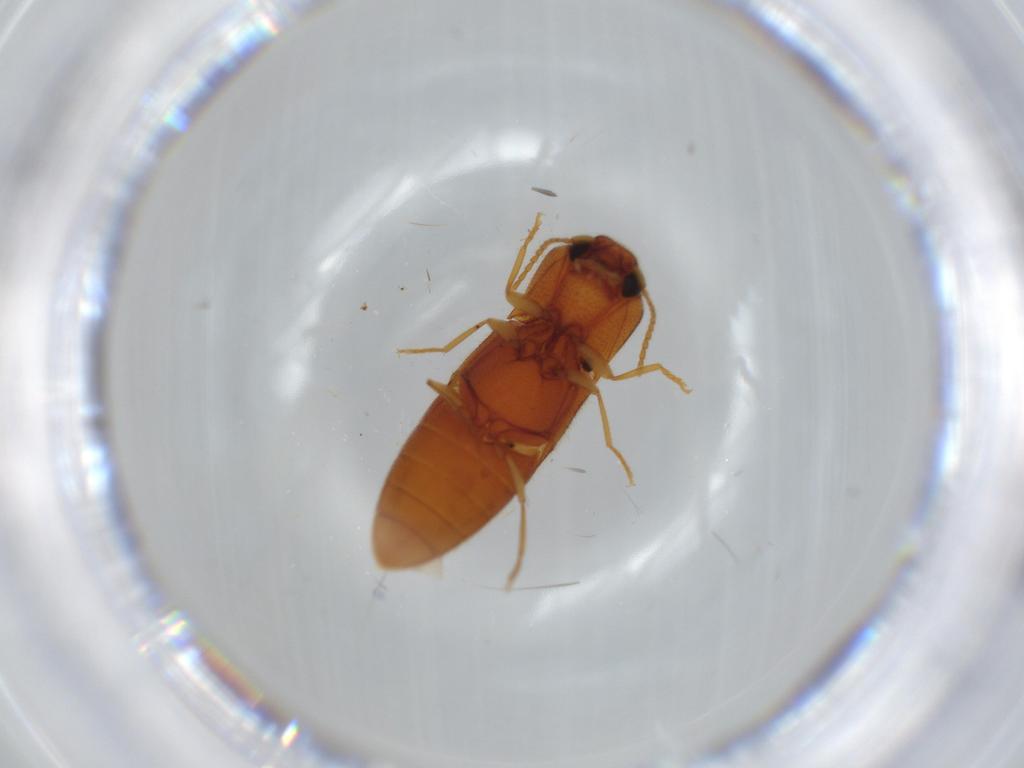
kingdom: Animalia
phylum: Arthropoda
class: Insecta
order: Coleoptera
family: Elateridae
